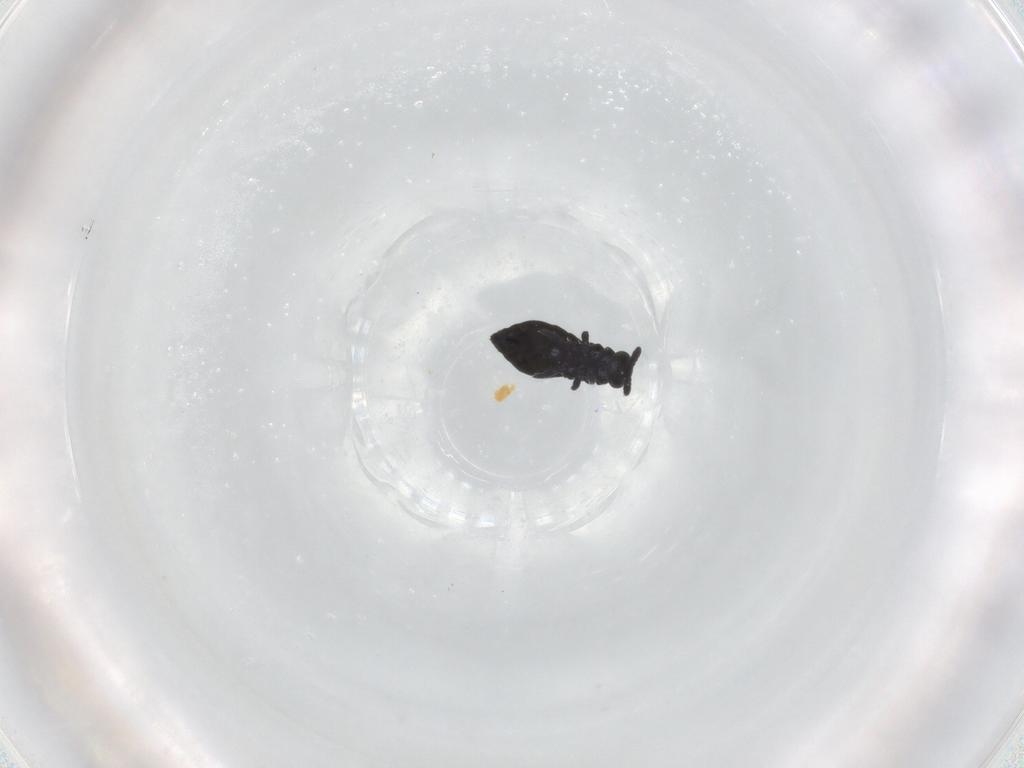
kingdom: Animalia
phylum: Arthropoda
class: Collembola
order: Poduromorpha
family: Hypogastruridae
